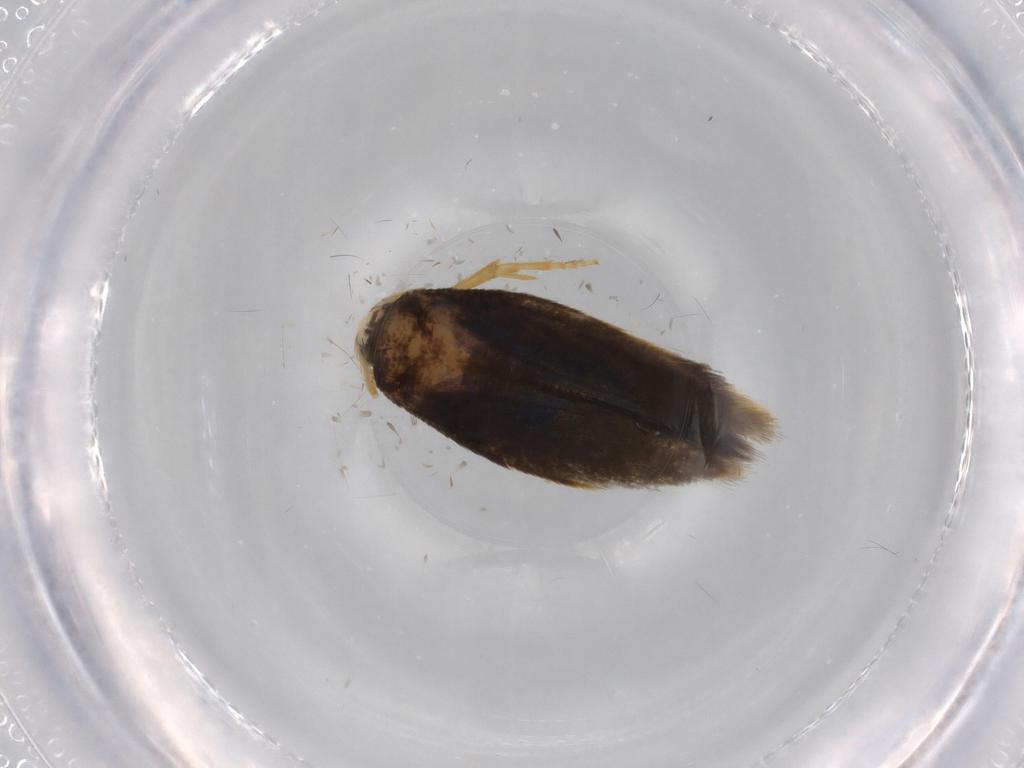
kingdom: Animalia
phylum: Arthropoda
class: Insecta
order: Lepidoptera
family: Nepticulidae
